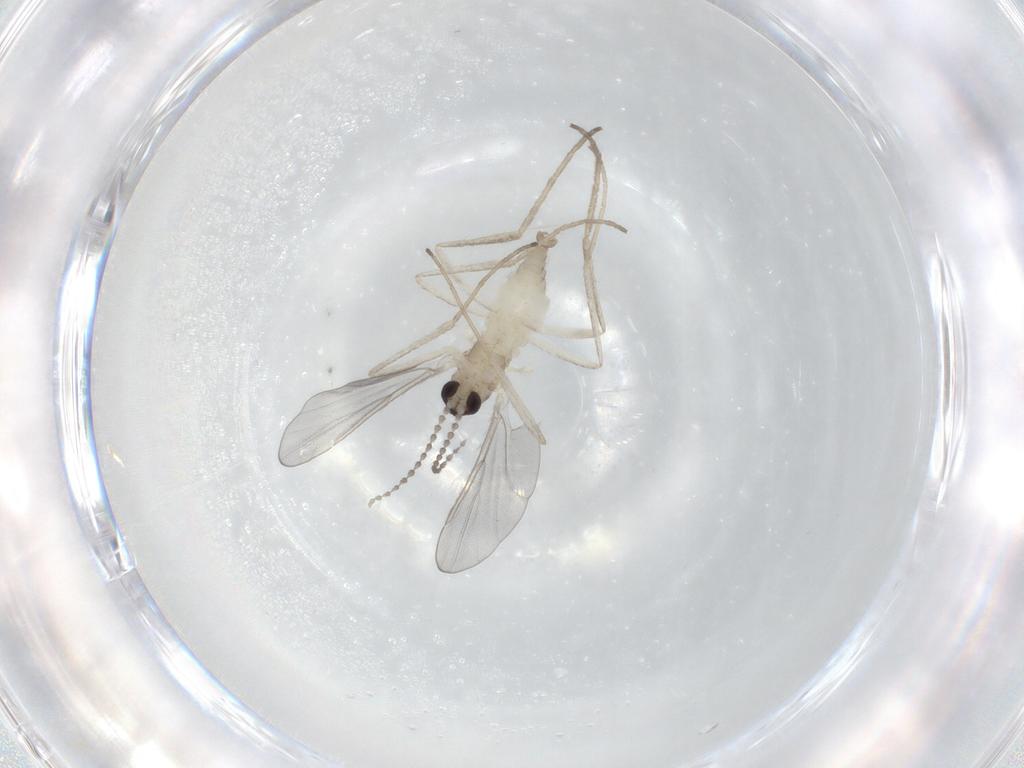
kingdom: Animalia
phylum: Arthropoda
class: Insecta
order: Diptera
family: Cecidomyiidae
